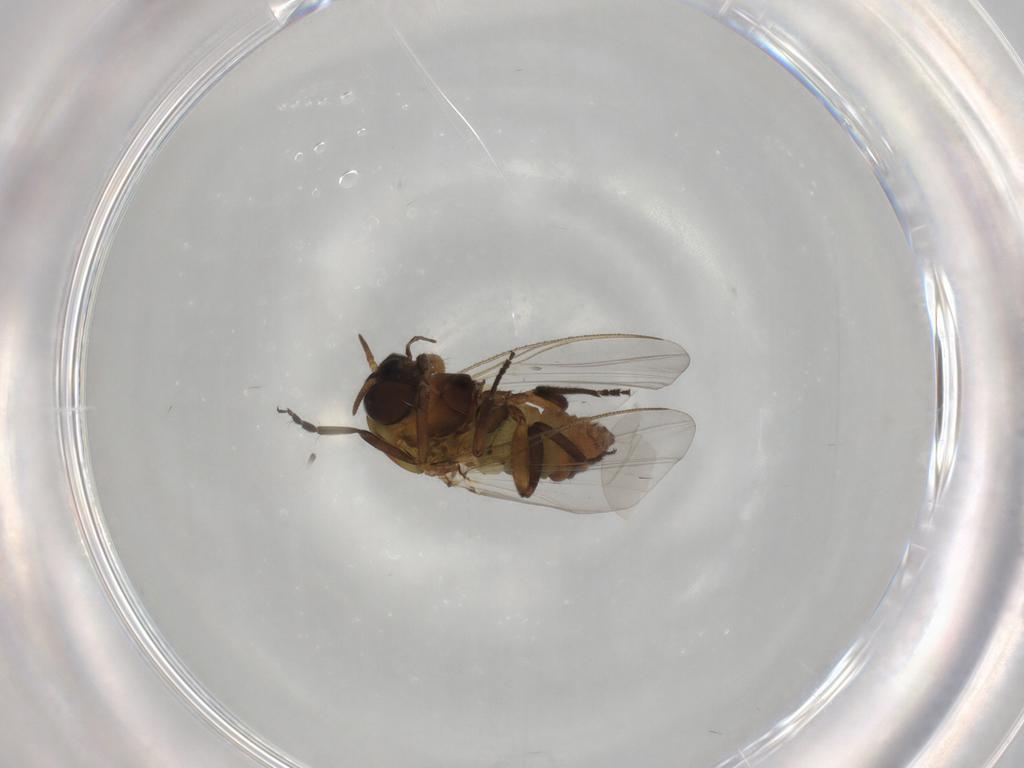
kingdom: Animalia
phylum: Arthropoda
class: Insecta
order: Diptera
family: Simuliidae
